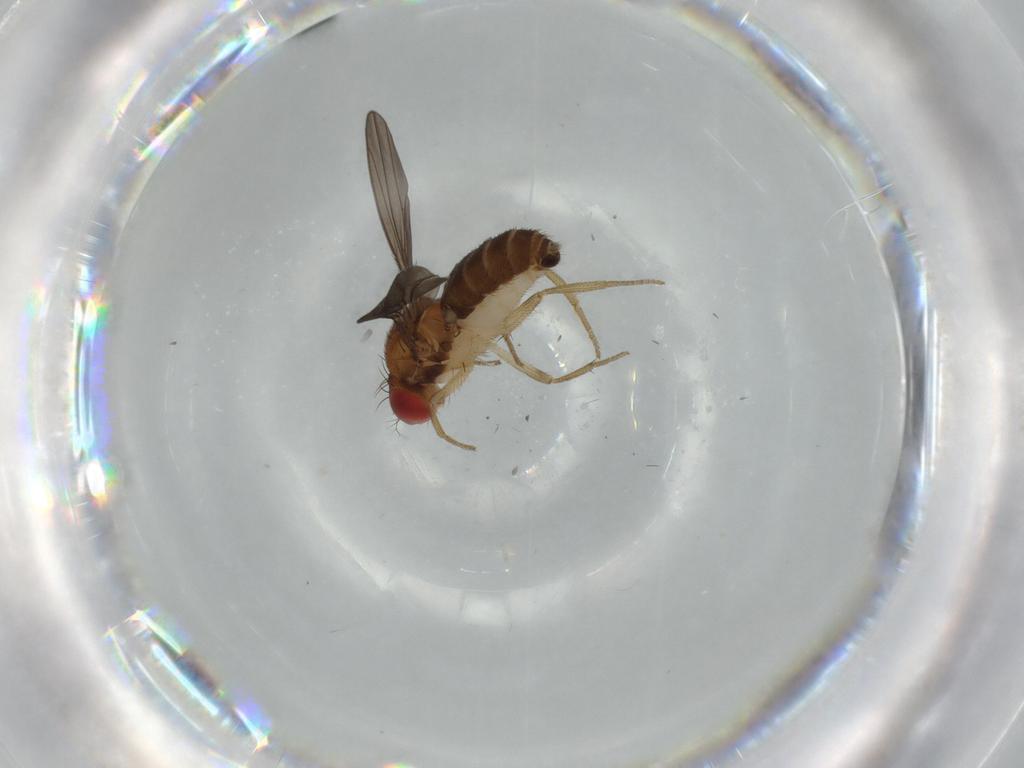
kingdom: Animalia
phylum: Arthropoda
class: Insecta
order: Diptera
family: Drosophilidae
